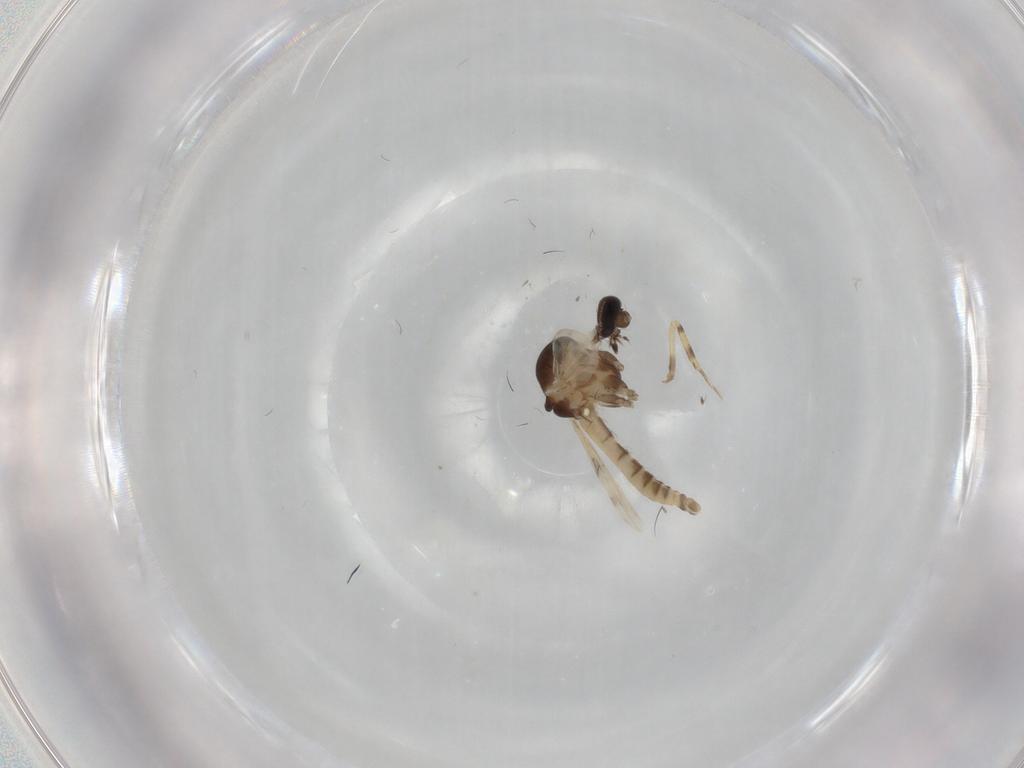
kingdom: Animalia
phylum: Arthropoda
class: Insecta
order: Diptera
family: Ceratopogonidae
